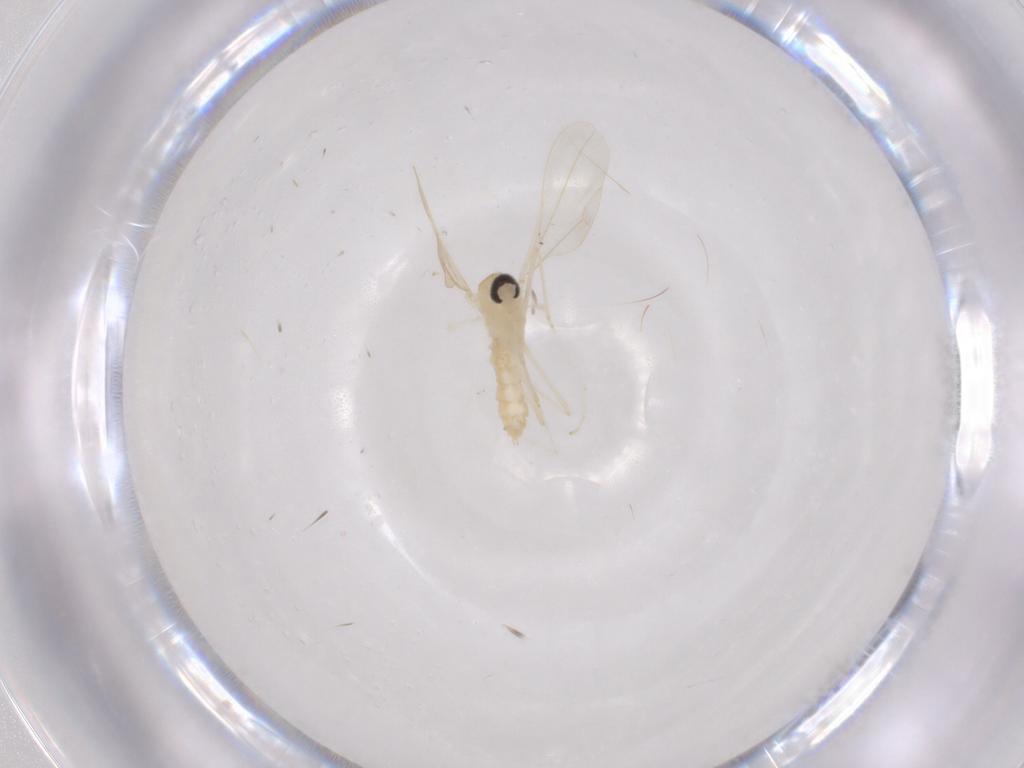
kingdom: Animalia
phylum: Arthropoda
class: Insecta
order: Diptera
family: Cecidomyiidae
